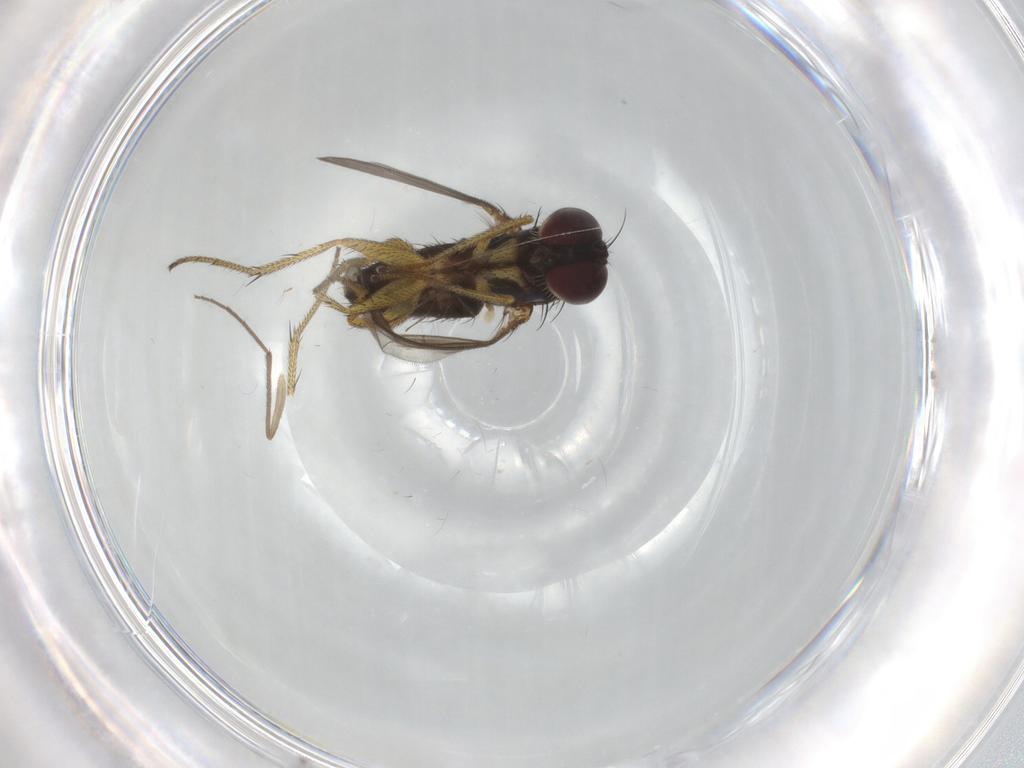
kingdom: Animalia
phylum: Arthropoda
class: Insecta
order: Diptera
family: Chironomidae
